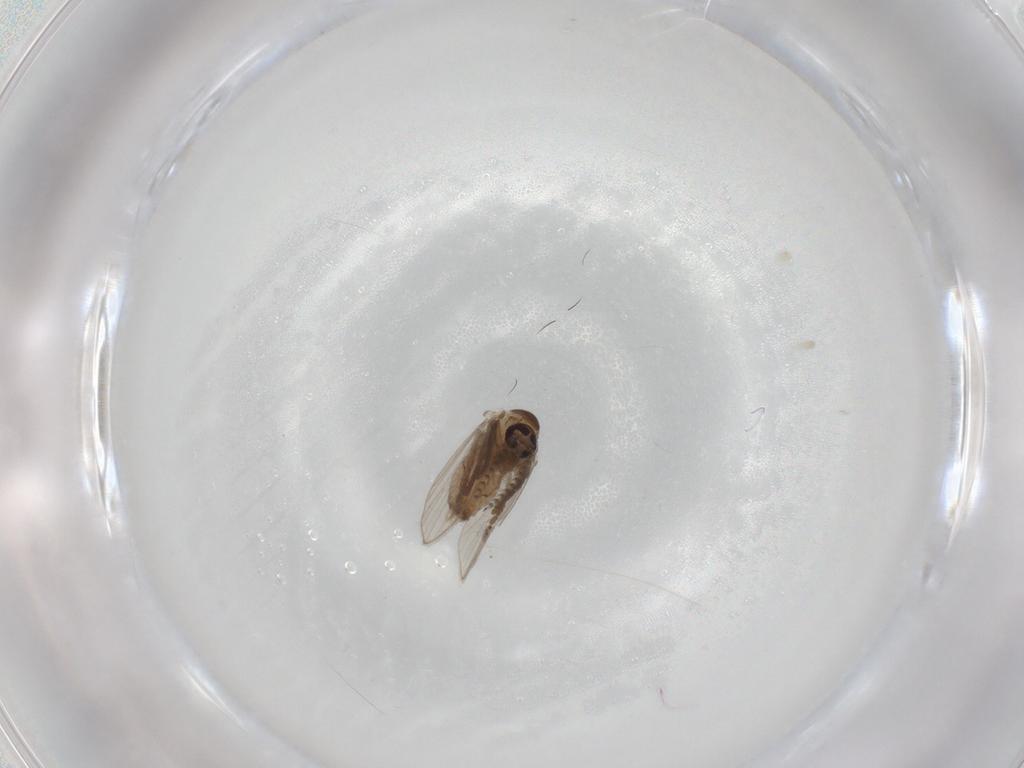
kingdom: Animalia
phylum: Arthropoda
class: Insecta
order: Diptera
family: Psychodidae
